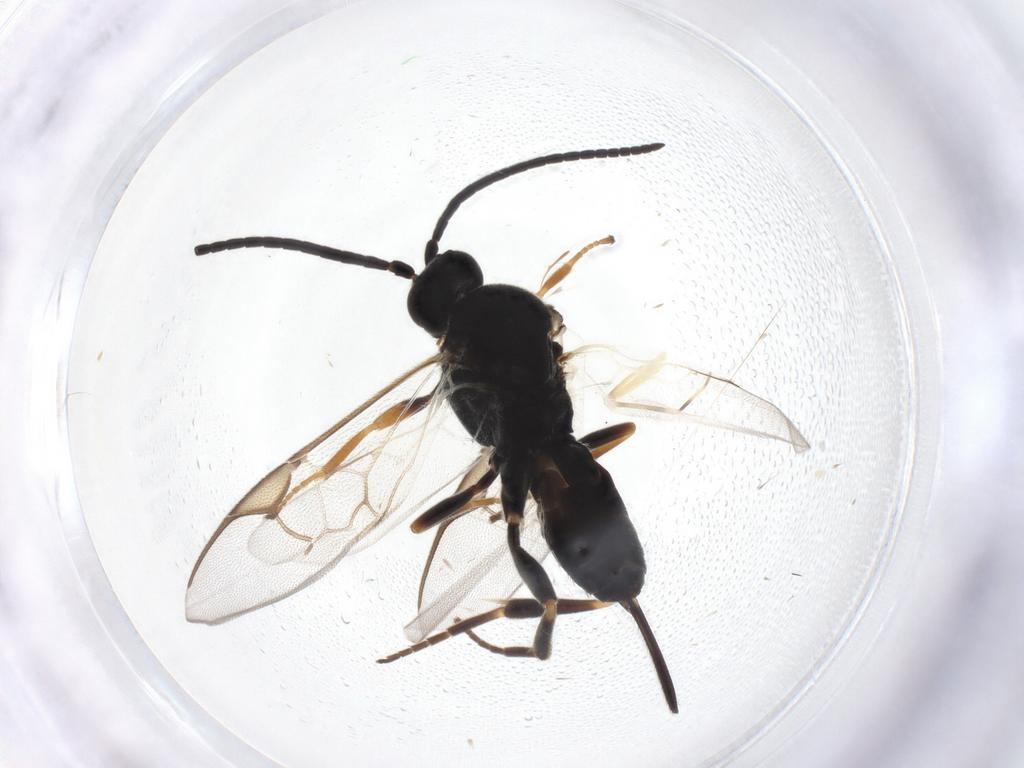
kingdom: Animalia
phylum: Arthropoda
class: Insecta
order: Hymenoptera
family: Braconidae
